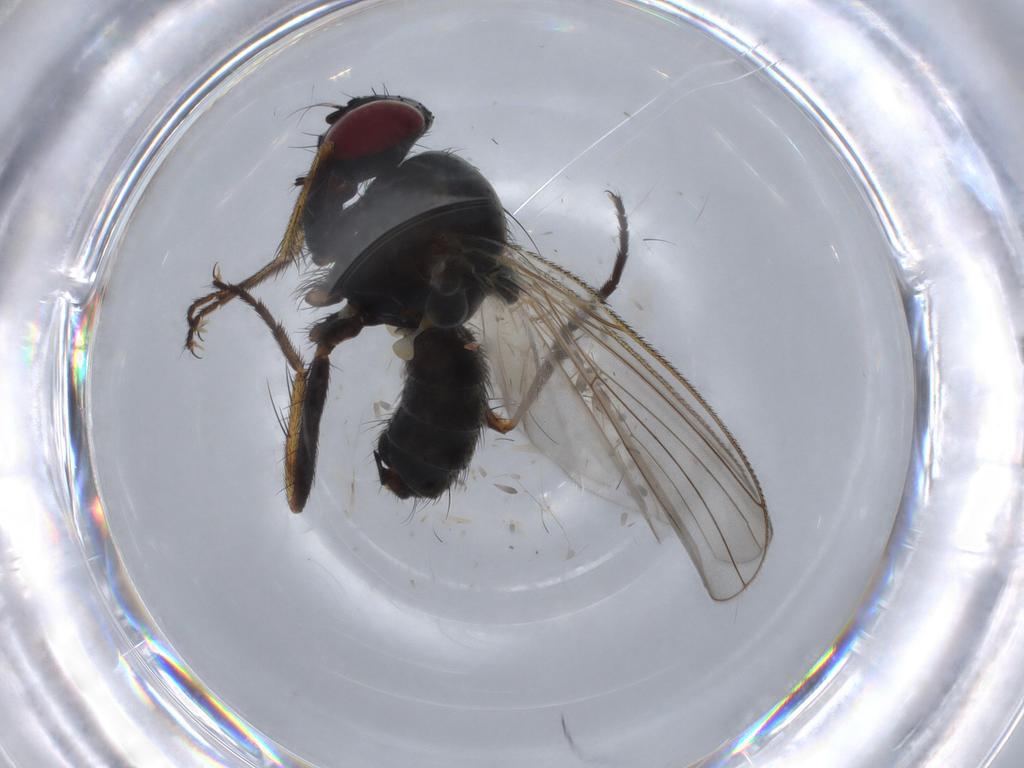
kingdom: Animalia
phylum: Arthropoda
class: Insecta
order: Diptera
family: Anthomyiidae
